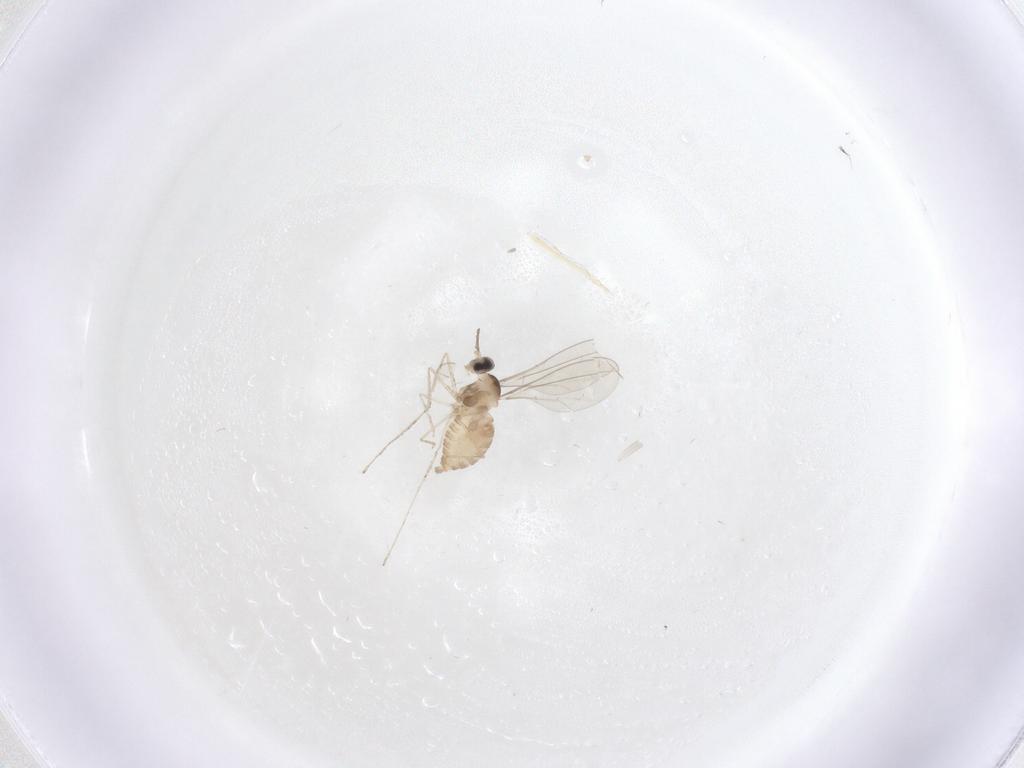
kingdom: Animalia
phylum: Arthropoda
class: Insecta
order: Diptera
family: Cecidomyiidae
